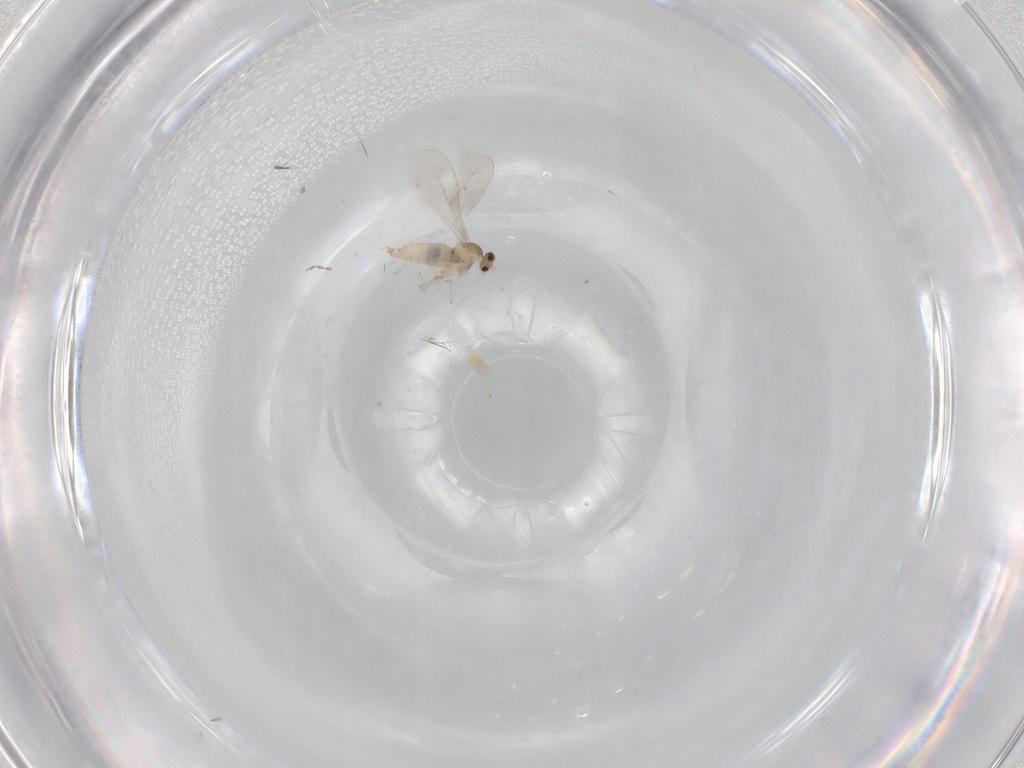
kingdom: Animalia
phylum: Arthropoda
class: Insecta
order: Diptera
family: Cecidomyiidae
